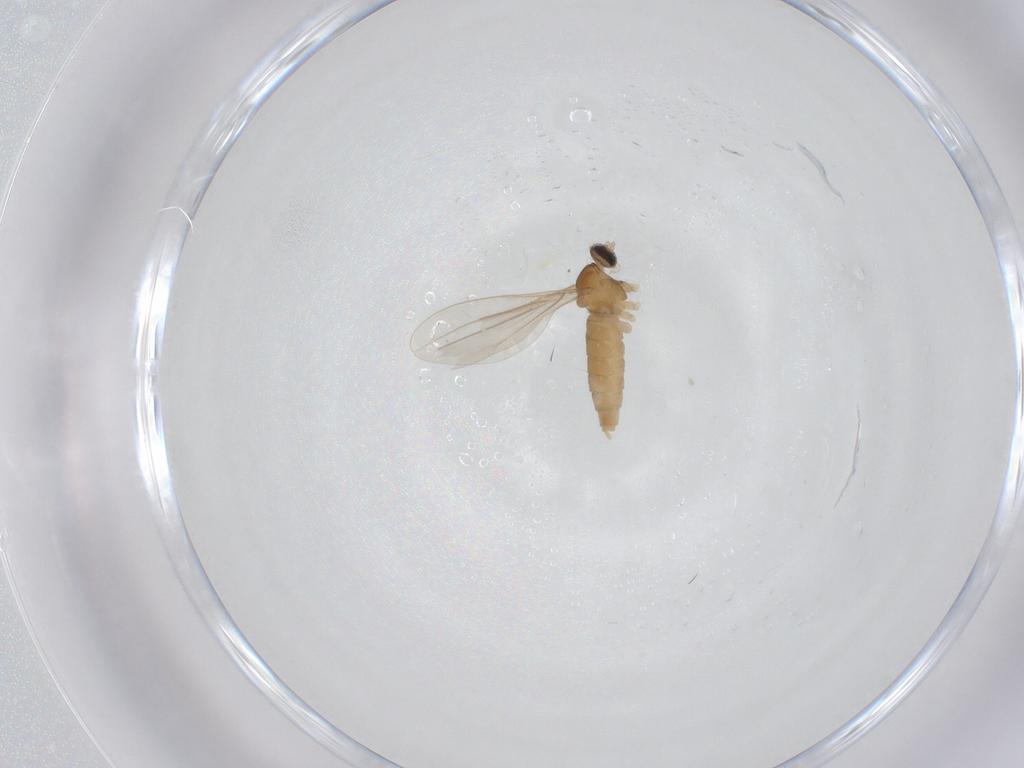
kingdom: Animalia
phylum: Arthropoda
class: Insecta
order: Diptera
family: Cecidomyiidae
